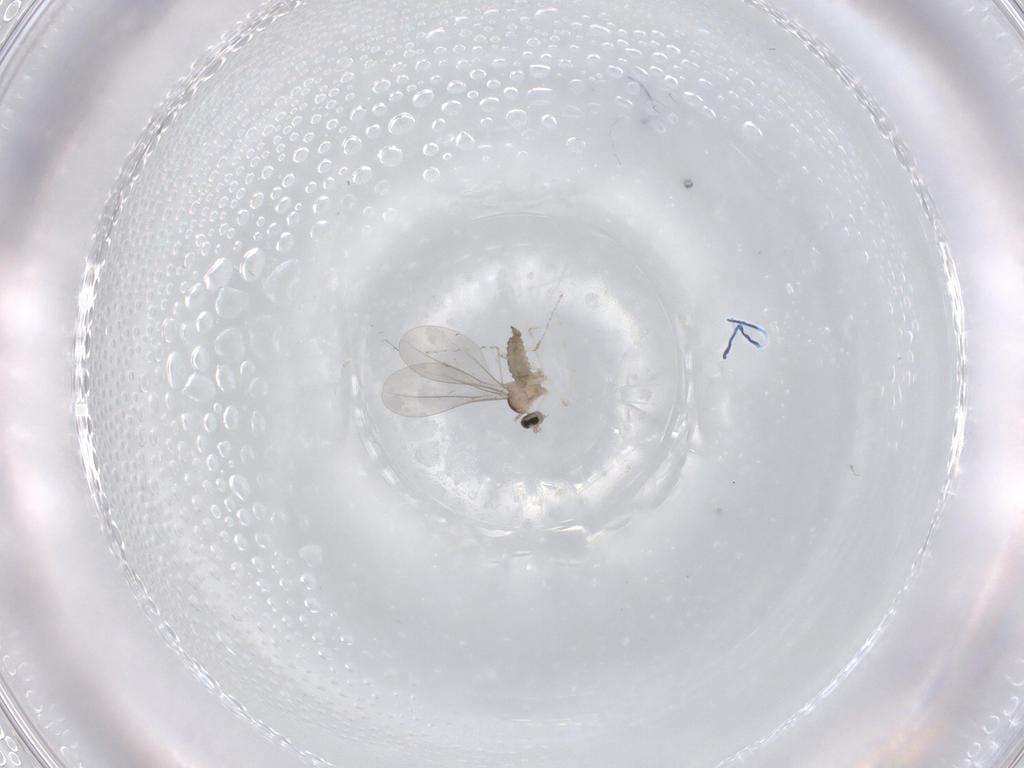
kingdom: Animalia
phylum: Arthropoda
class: Insecta
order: Diptera
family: Cecidomyiidae
